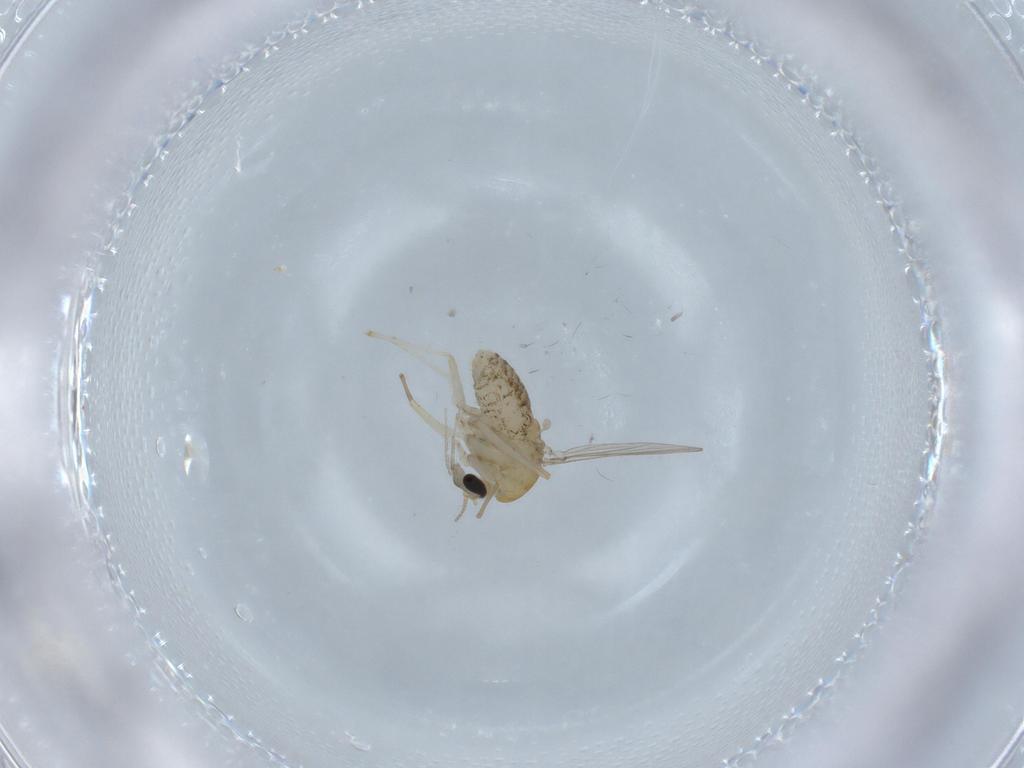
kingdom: Animalia
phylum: Arthropoda
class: Insecta
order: Diptera
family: Chironomidae
